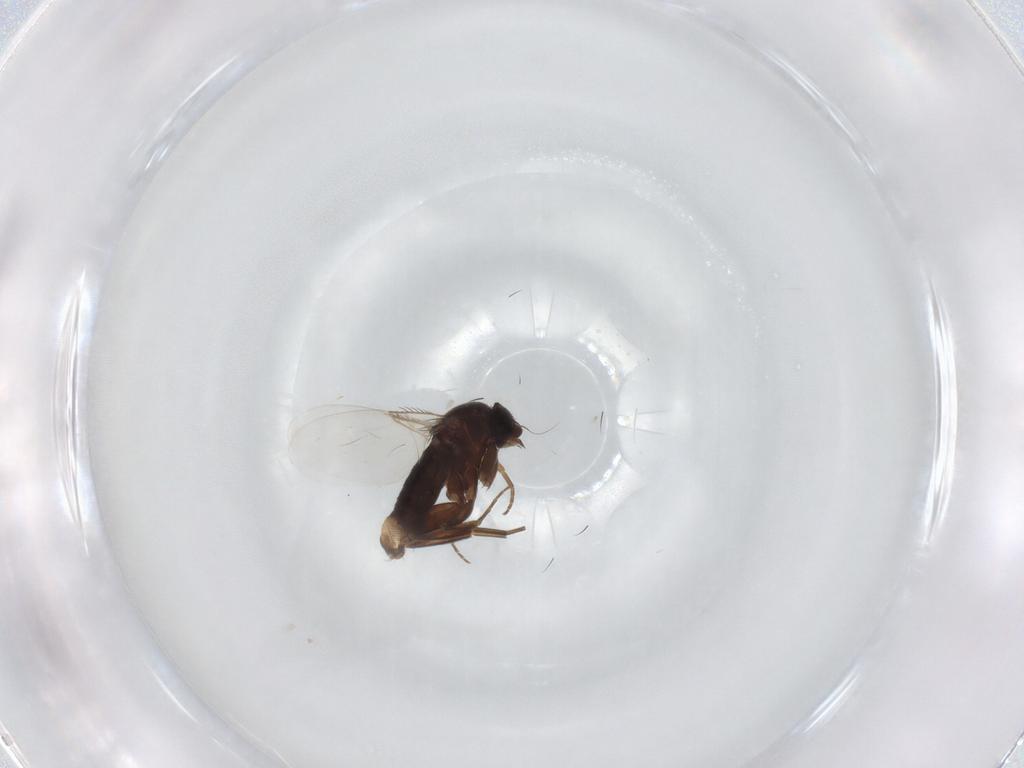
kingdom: Animalia
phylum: Arthropoda
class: Insecta
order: Diptera
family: Phoridae
